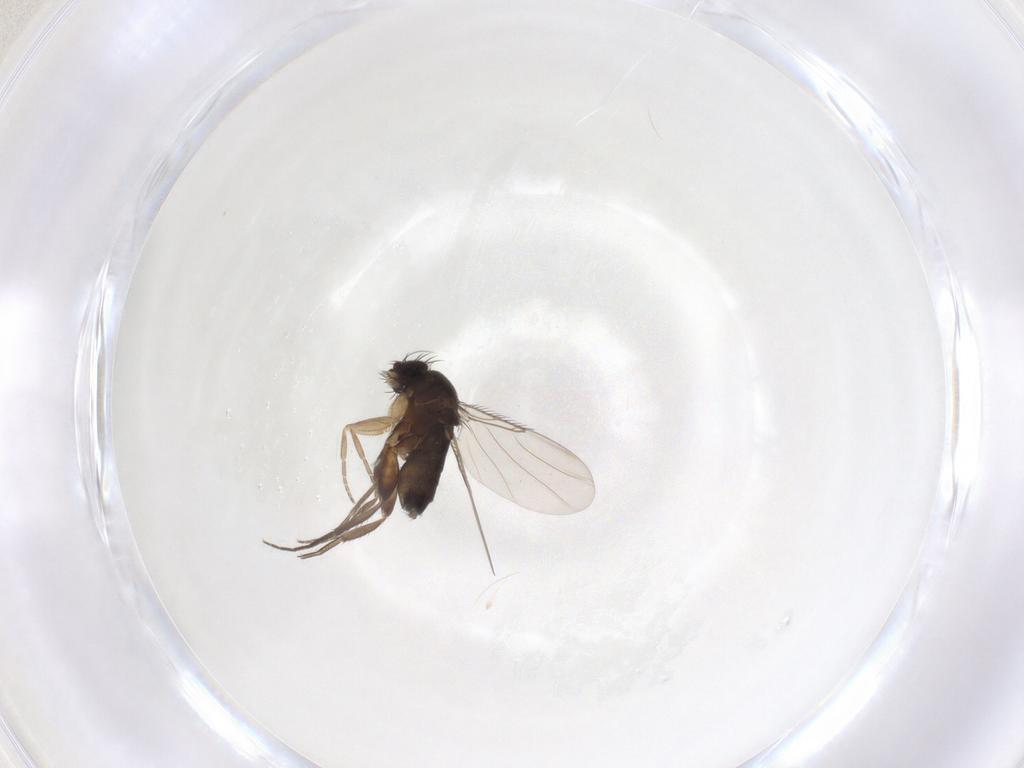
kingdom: Animalia
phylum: Arthropoda
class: Insecta
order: Diptera
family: Phoridae
